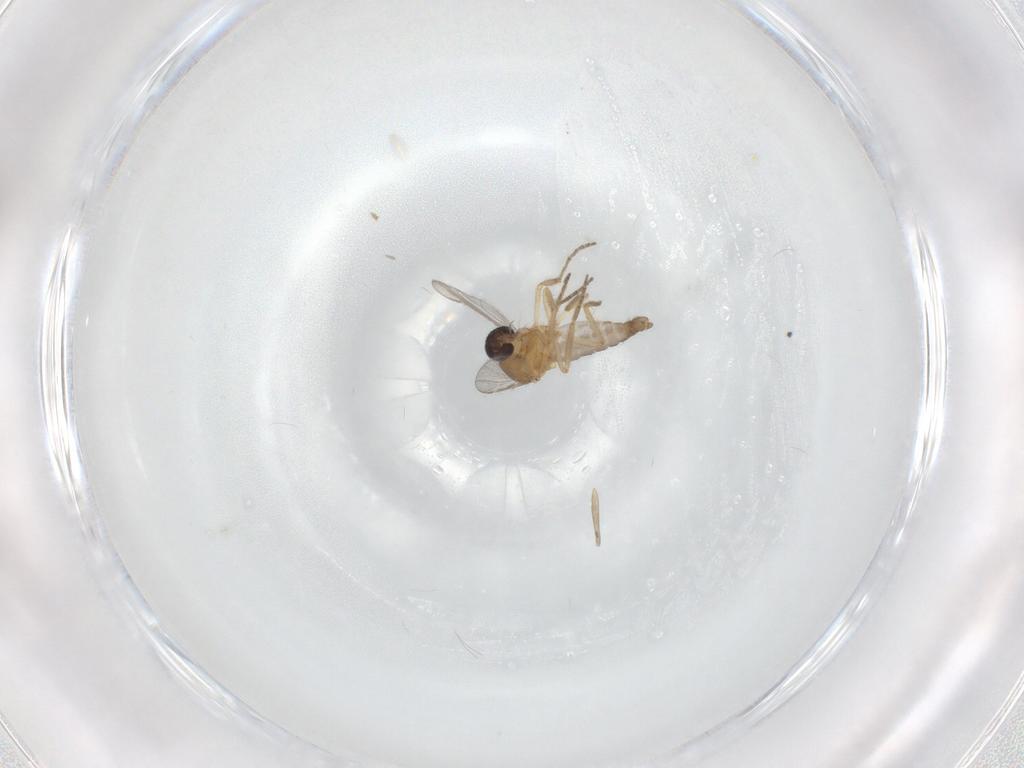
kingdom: Animalia
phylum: Arthropoda
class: Insecta
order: Diptera
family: Ceratopogonidae
